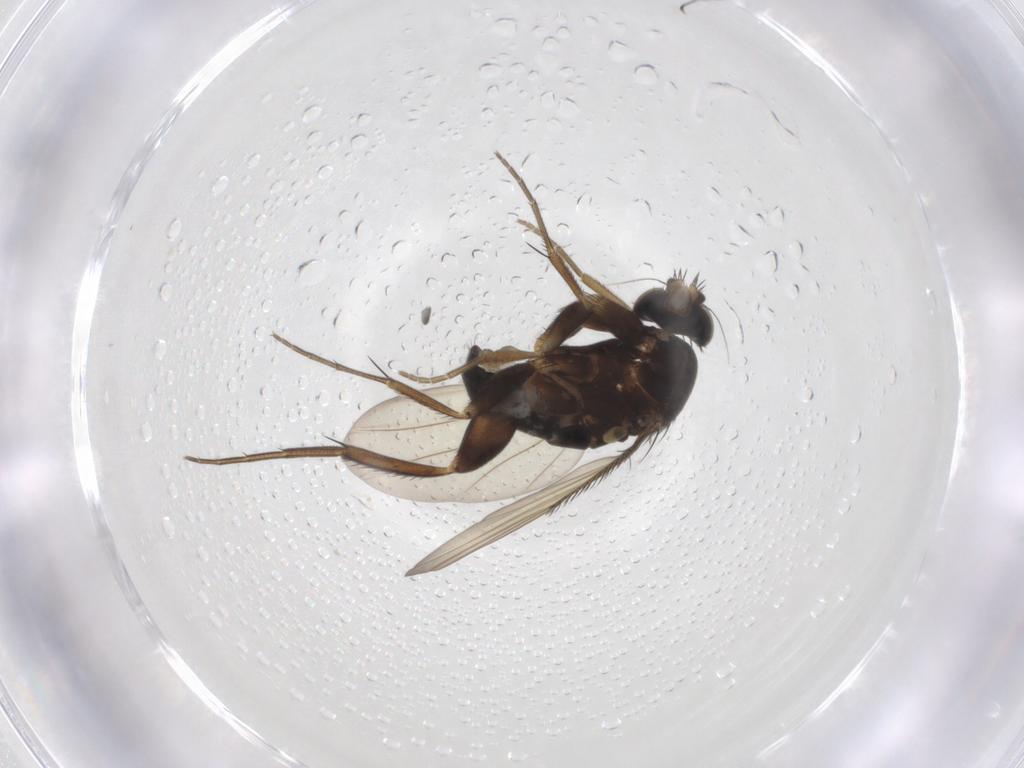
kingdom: Animalia
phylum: Arthropoda
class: Insecta
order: Diptera
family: Phoridae
